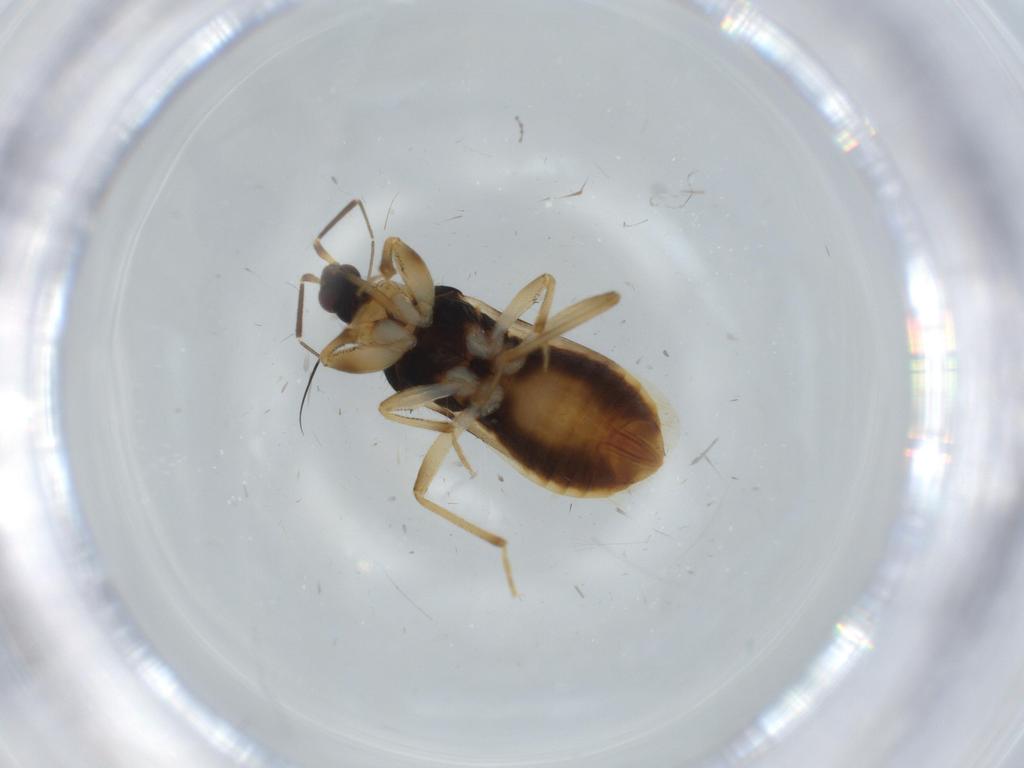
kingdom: Animalia
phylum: Arthropoda
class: Insecta
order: Hemiptera
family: Nabidae
